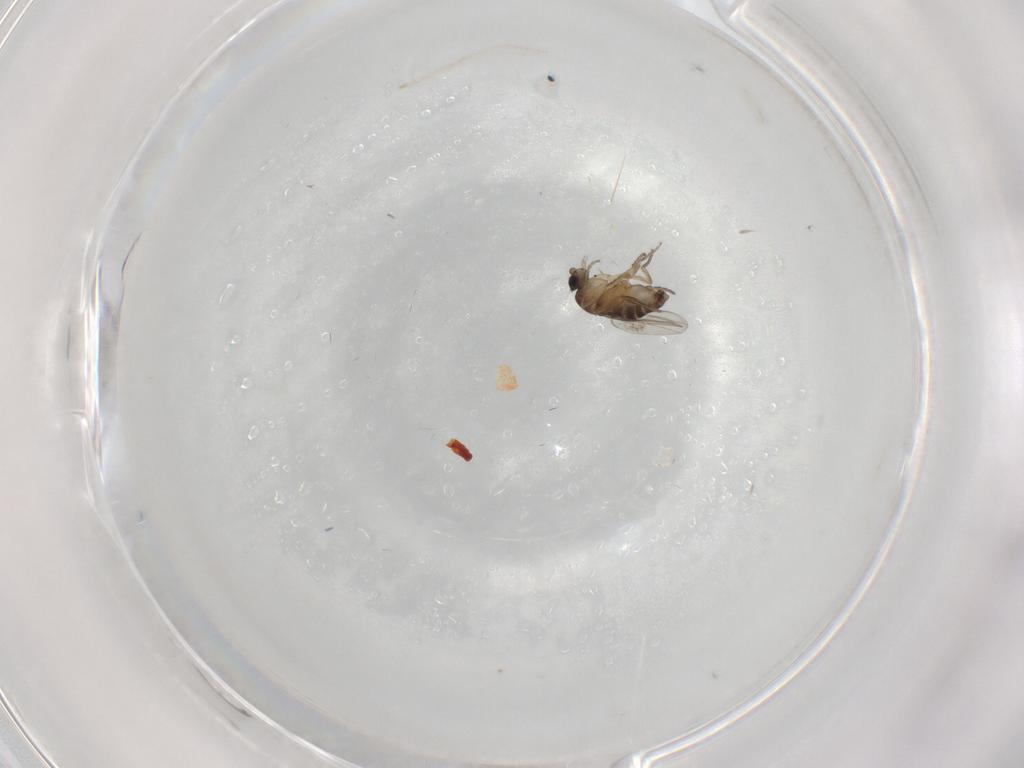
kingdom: Animalia
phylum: Arthropoda
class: Insecta
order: Diptera
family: Phoridae
